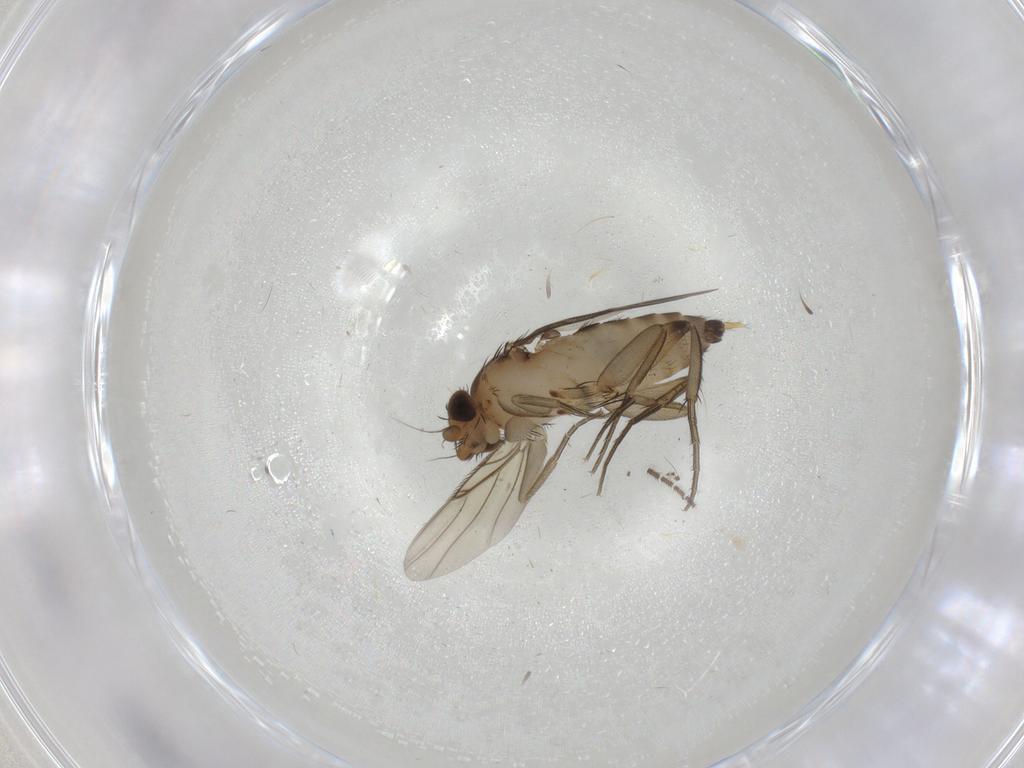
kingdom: Animalia
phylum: Arthropoda
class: Insecta
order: Diptera
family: Phoridae
